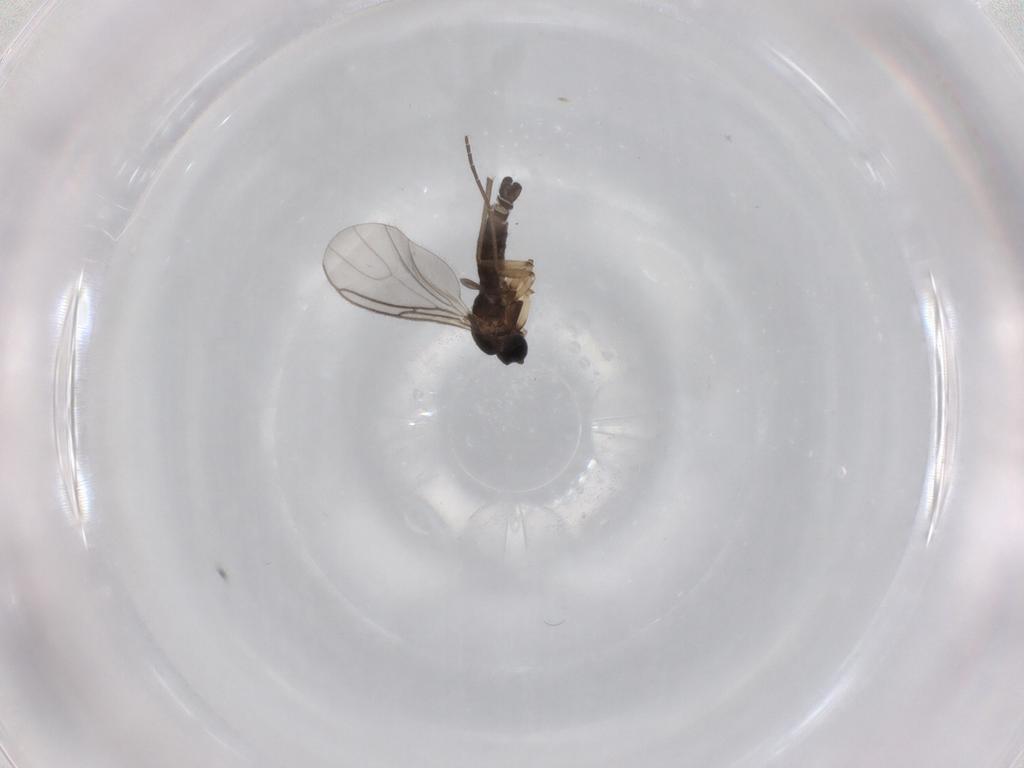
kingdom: Animalia
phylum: Arthropoda
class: Insecta
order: Diptera
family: Sciaridae
